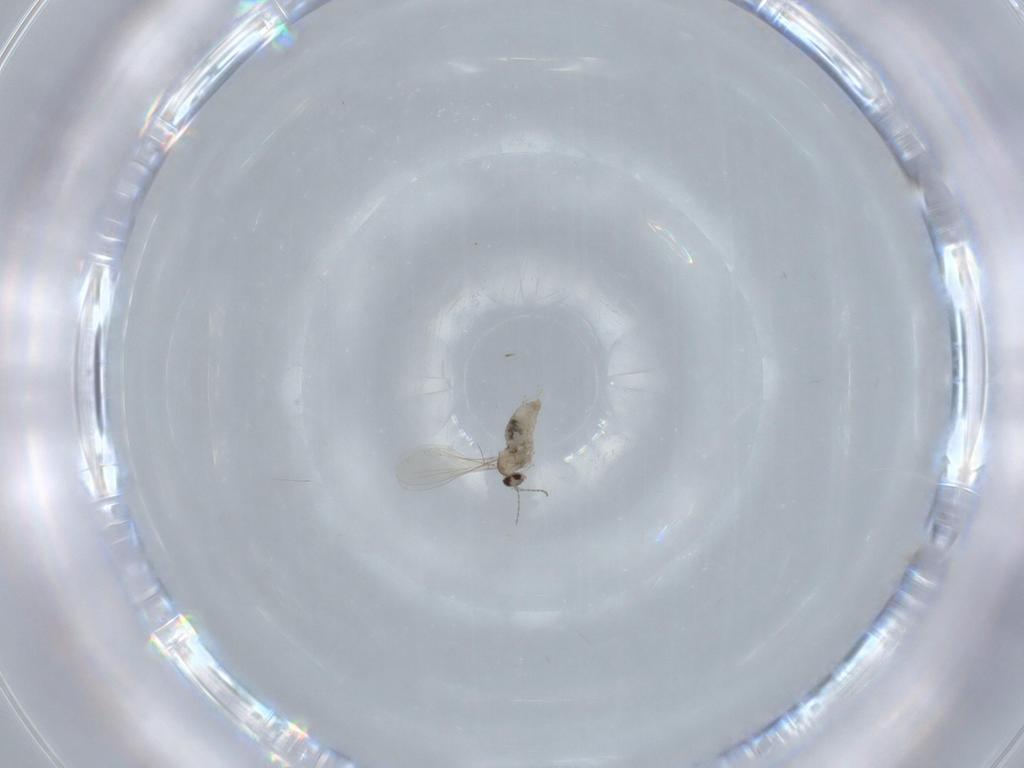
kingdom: Animalia
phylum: Arthropoda
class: Insecta
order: Diptera
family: Cecidomyiidae
